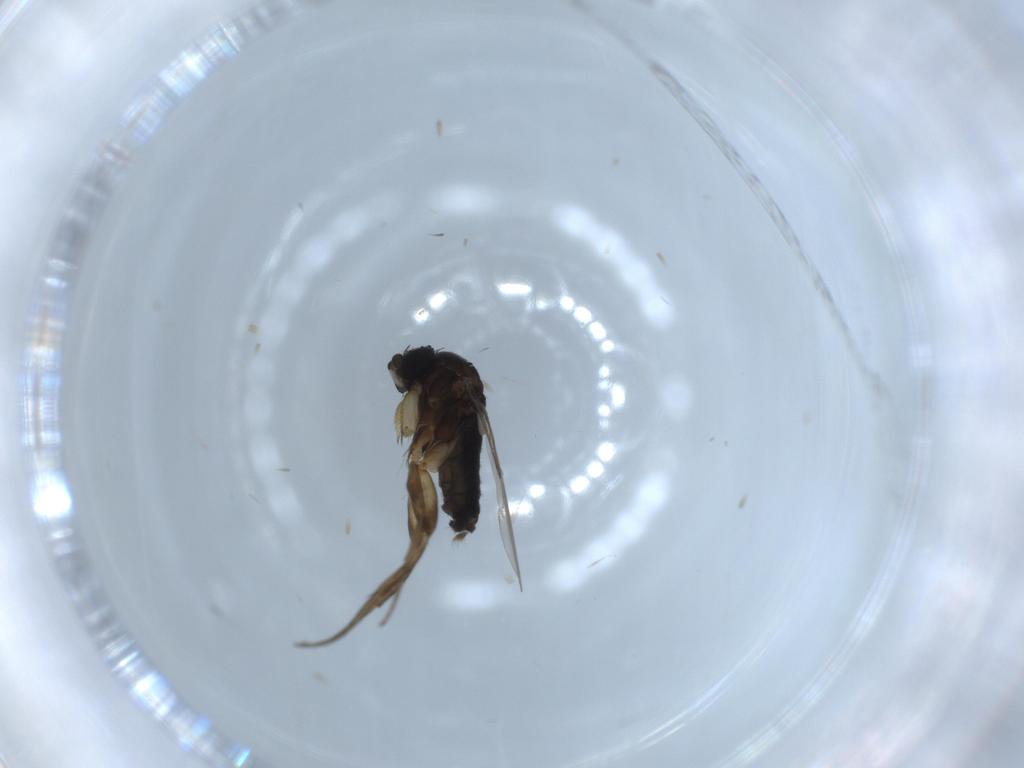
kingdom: Animalia
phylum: Arthropoda
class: Insecta
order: Diptera
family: Phoridae
